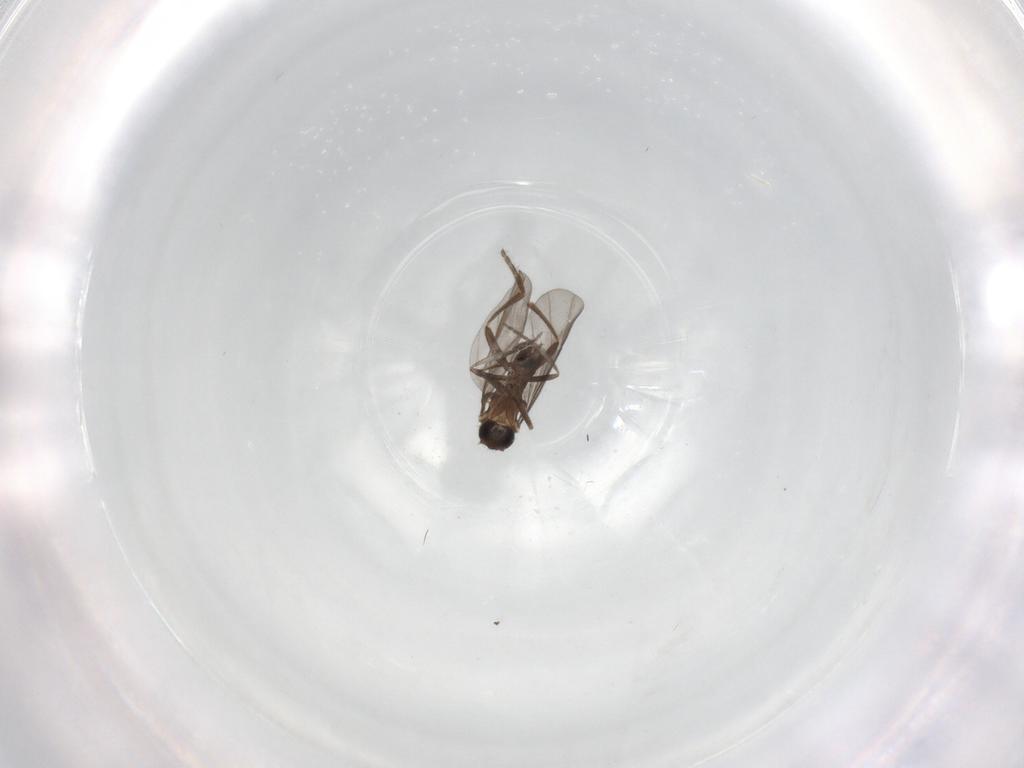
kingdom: Animalia
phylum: Arthropoda
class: Insecta
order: Diptera
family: Phoridae
